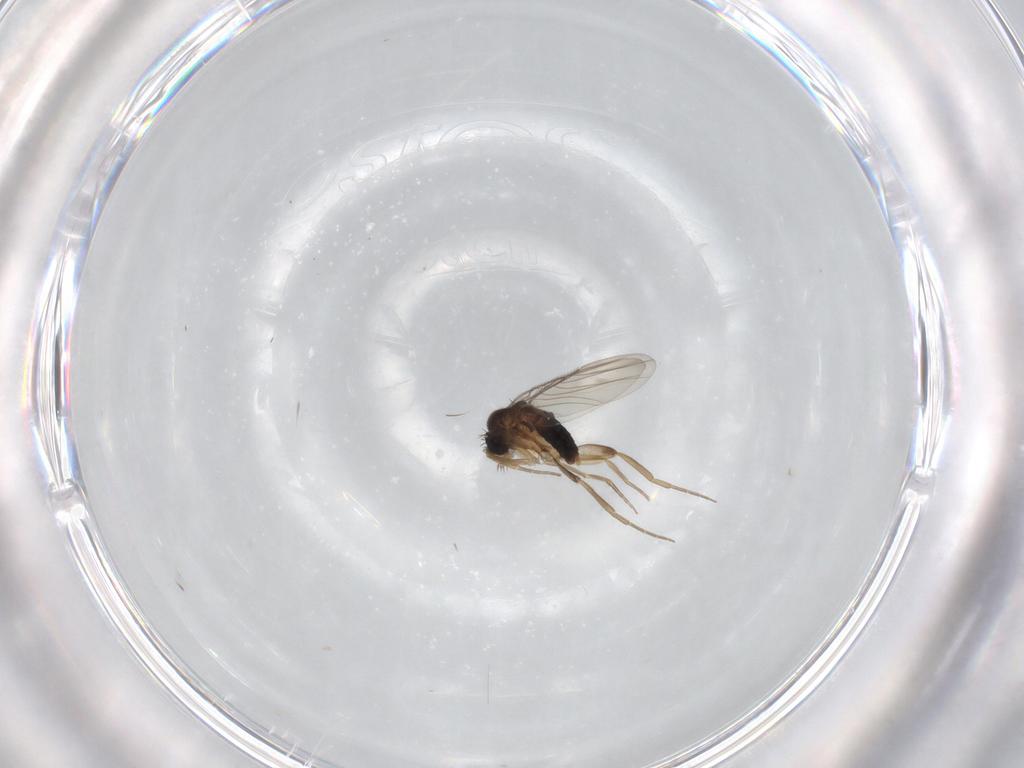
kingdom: Animalia
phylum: Arthropoda
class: Insecta
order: Diptera
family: Phoridae
